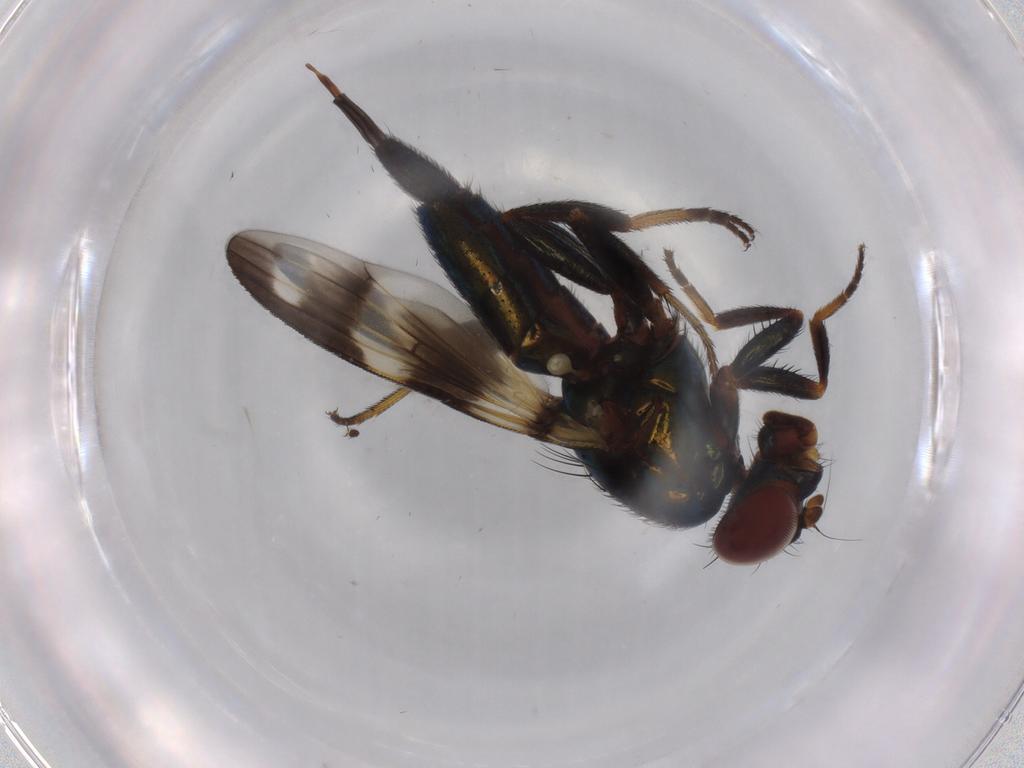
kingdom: Animalia
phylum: Arthropoda
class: Insecta
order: Diptera
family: Ulidiidae
